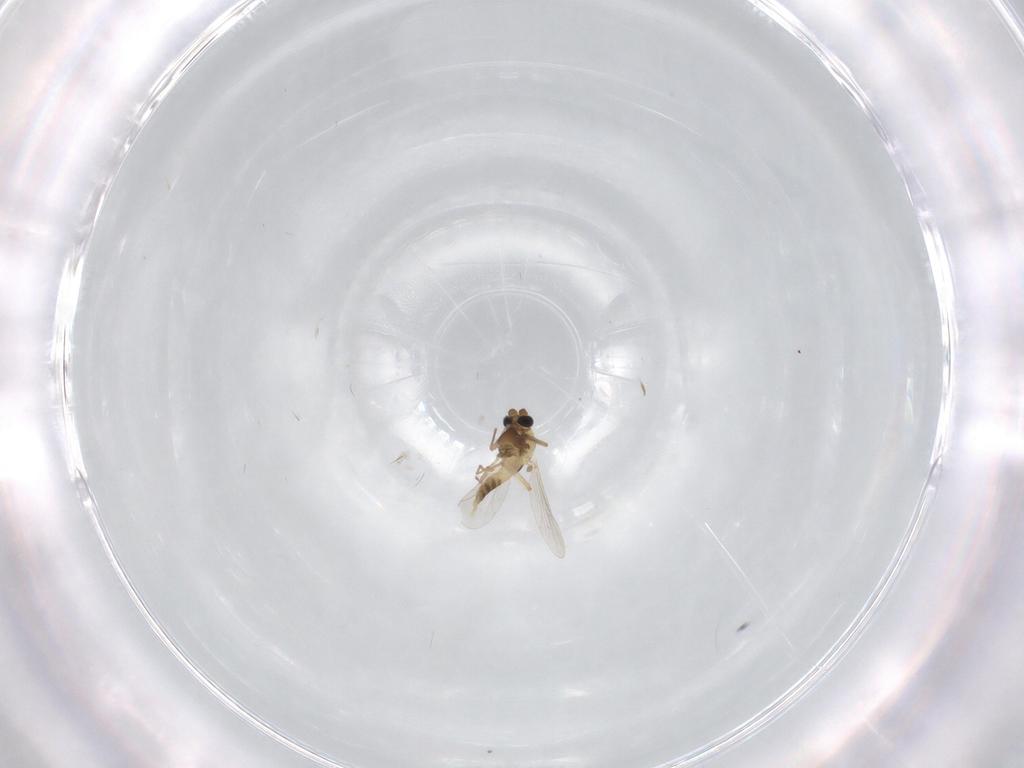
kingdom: Animalia
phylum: Arthropoda
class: Insecta
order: Diptera
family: Chironomidae
